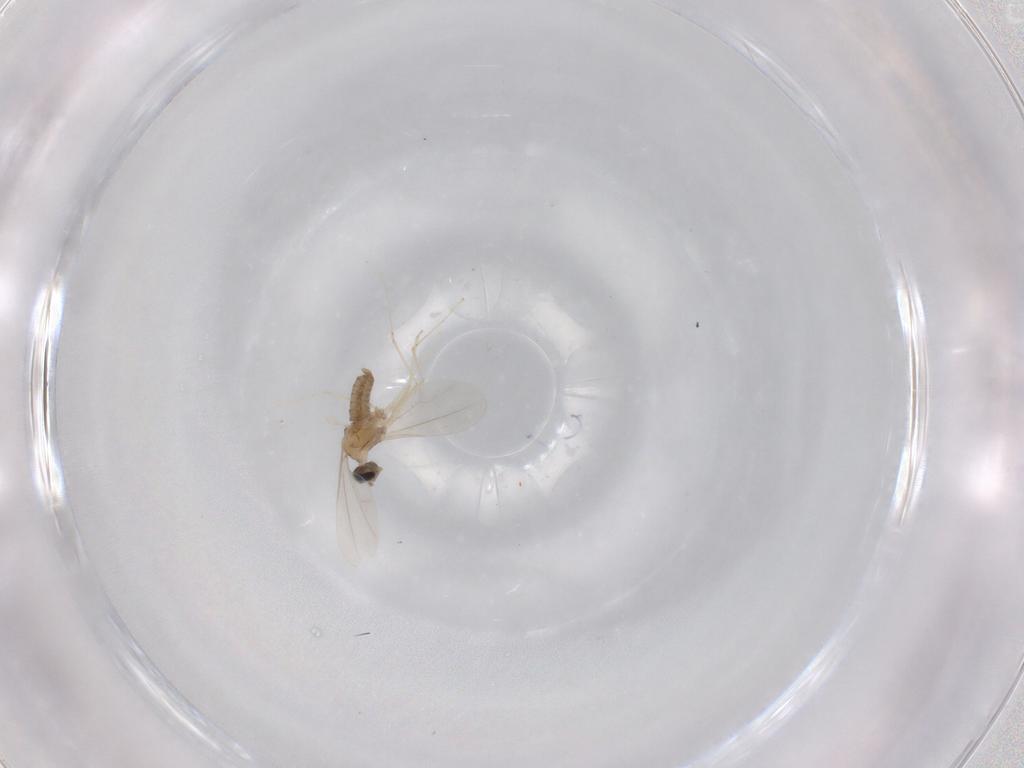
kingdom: Animalia
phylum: Arthropoda
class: Insecta
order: Diptera
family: Cecidomyiidae
